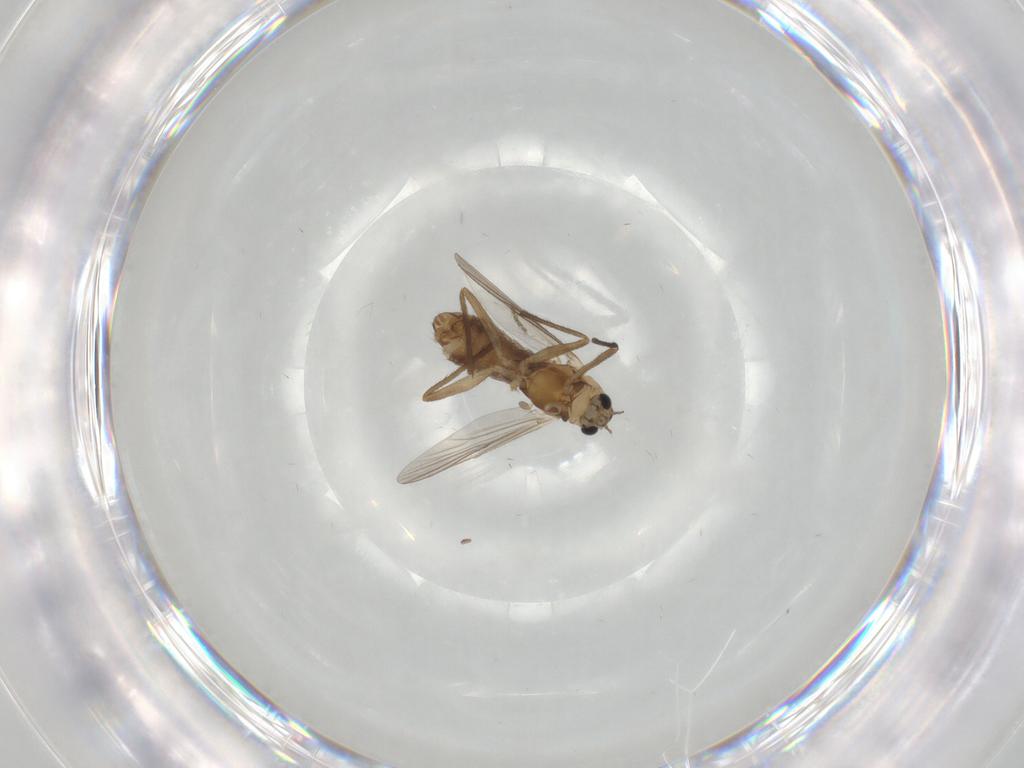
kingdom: Animalia
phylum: Arthropoda
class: Insecta
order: Diptera
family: Chironomidae
